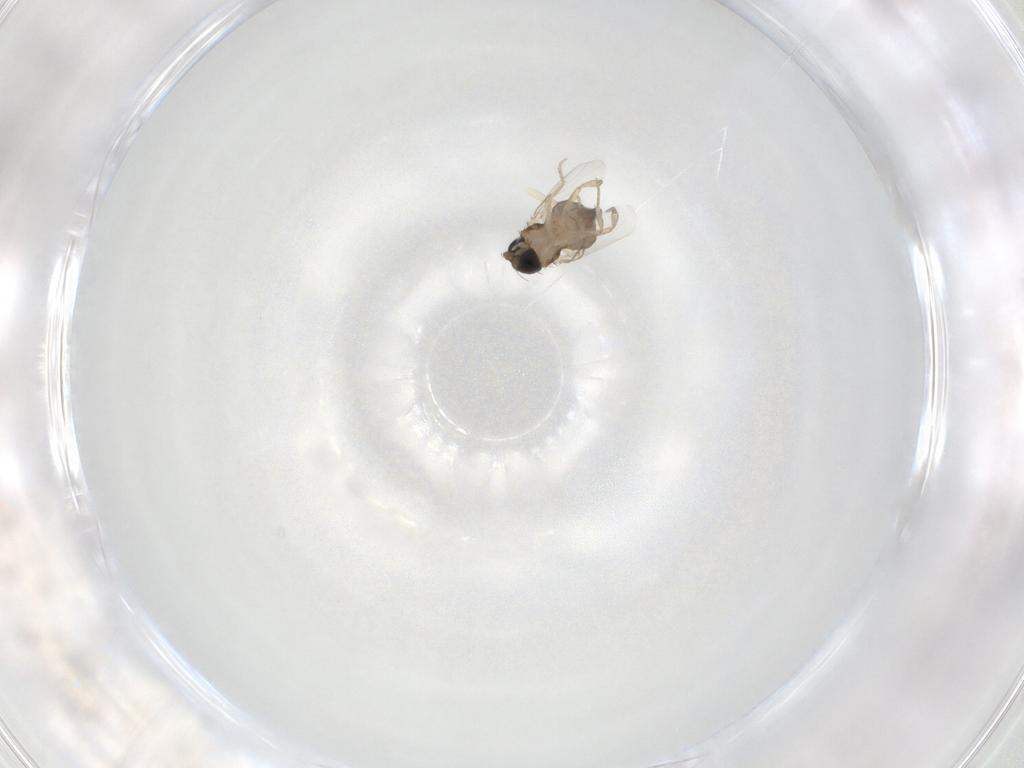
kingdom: Animalia
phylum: Arthropoda
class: Insecta
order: Diptera
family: Phoridae
